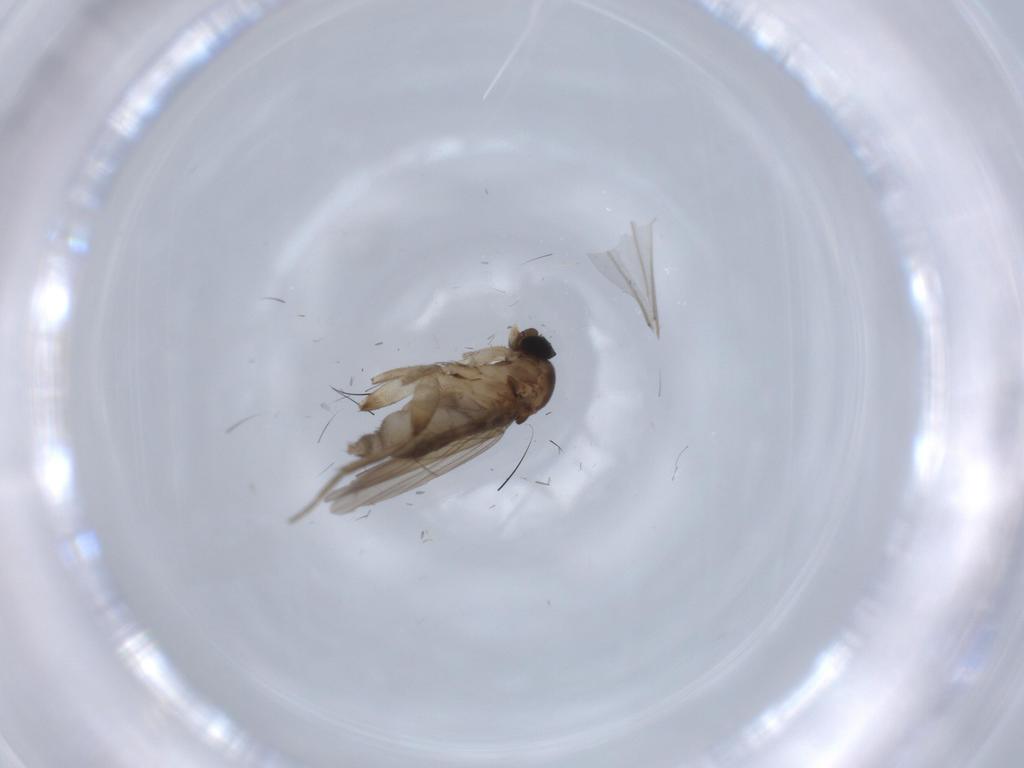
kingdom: Animalia
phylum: Arthropoda
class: Insecta
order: Diptera
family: Phoridae
